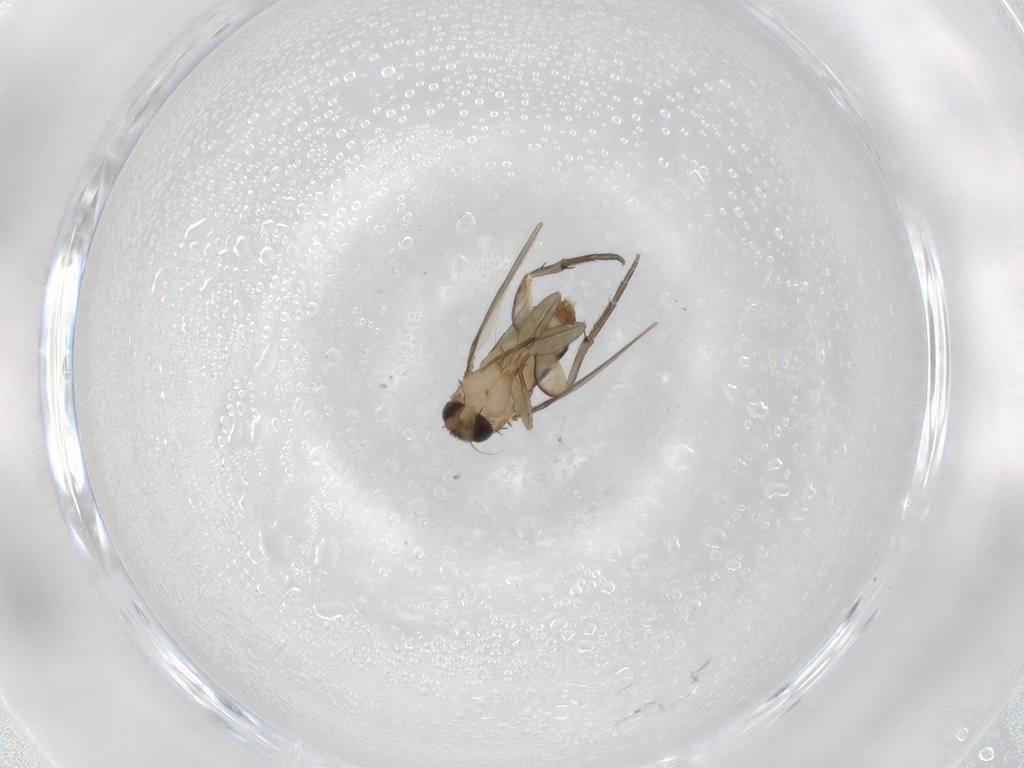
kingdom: Animalia
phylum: Arthropoda
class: Insecta
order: Diptera
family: Phoridae
